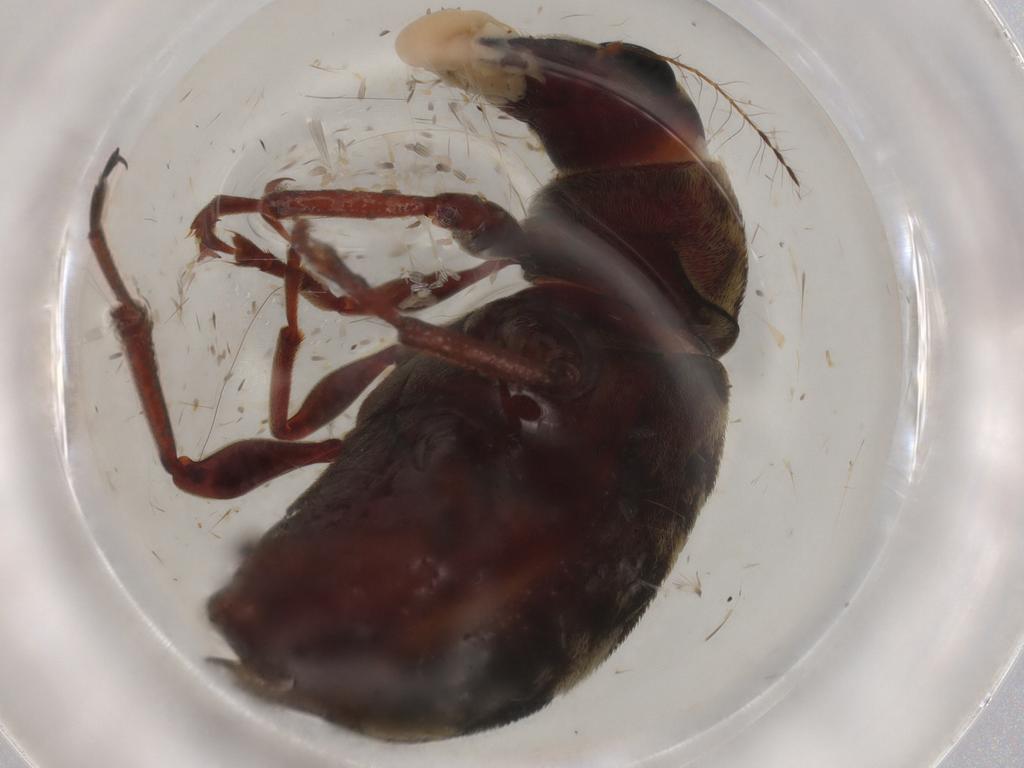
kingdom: Animalia
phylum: Arthropoda
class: Insecta
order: Coleoptera
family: Anthribidae
